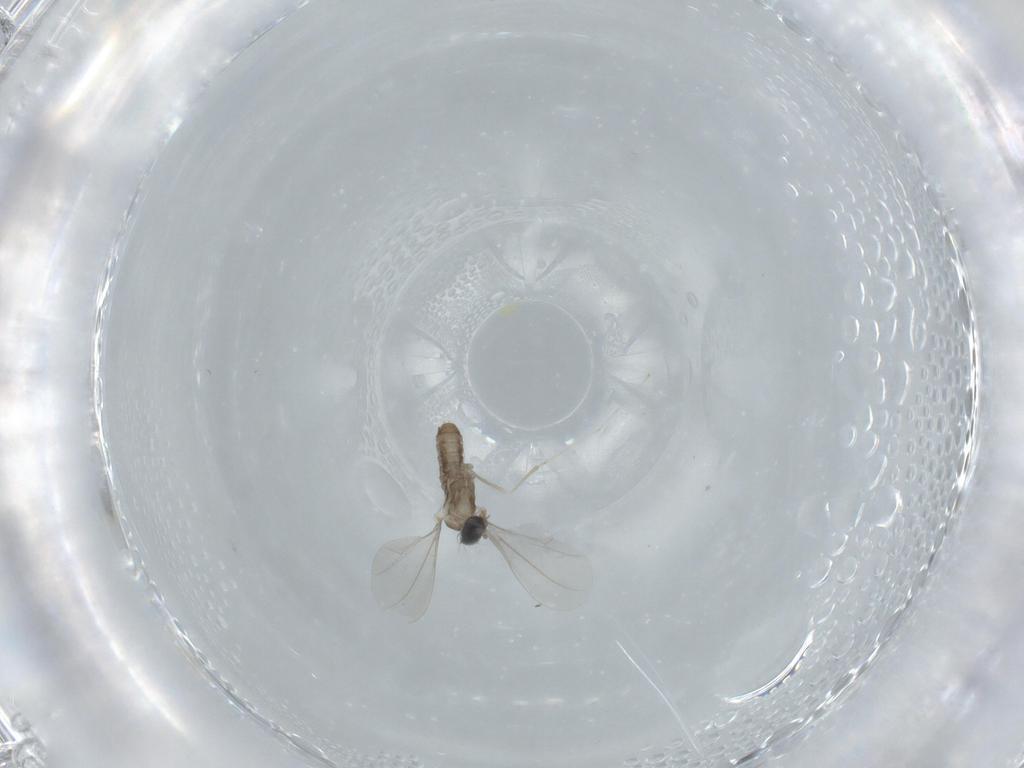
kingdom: Animalia
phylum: Arthropoda
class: Insecta
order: Diptera
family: Cecidomyiidae
